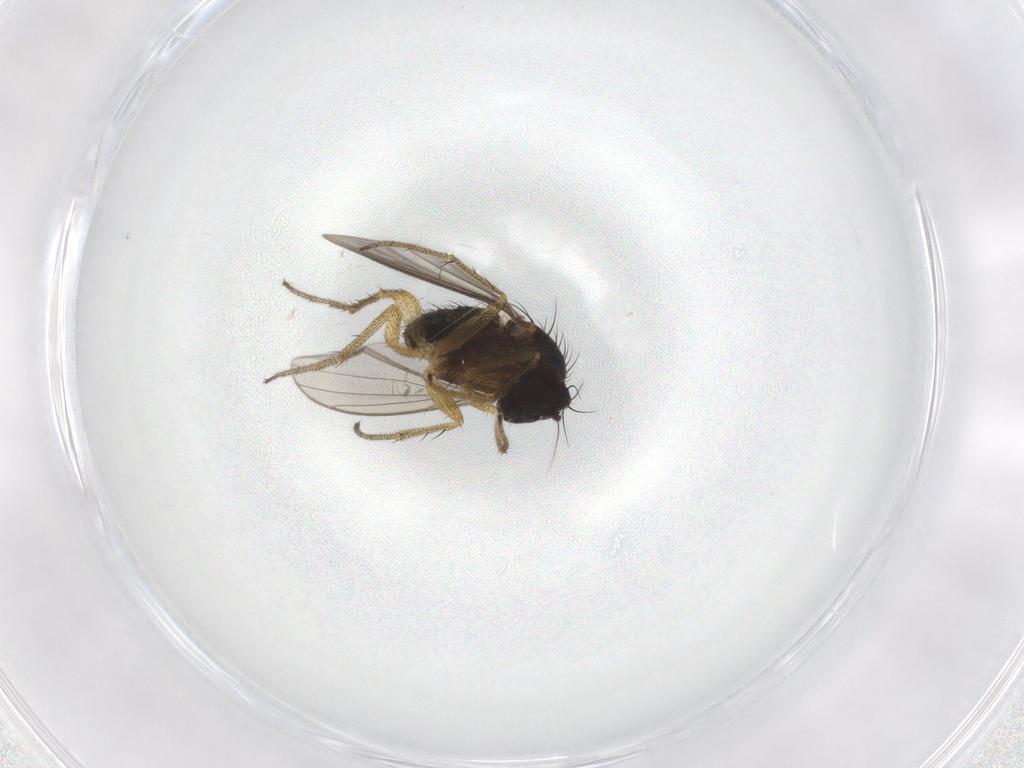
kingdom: Animalia
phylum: Arthropoda
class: Insecta
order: Diptera
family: Dolichopodidae
